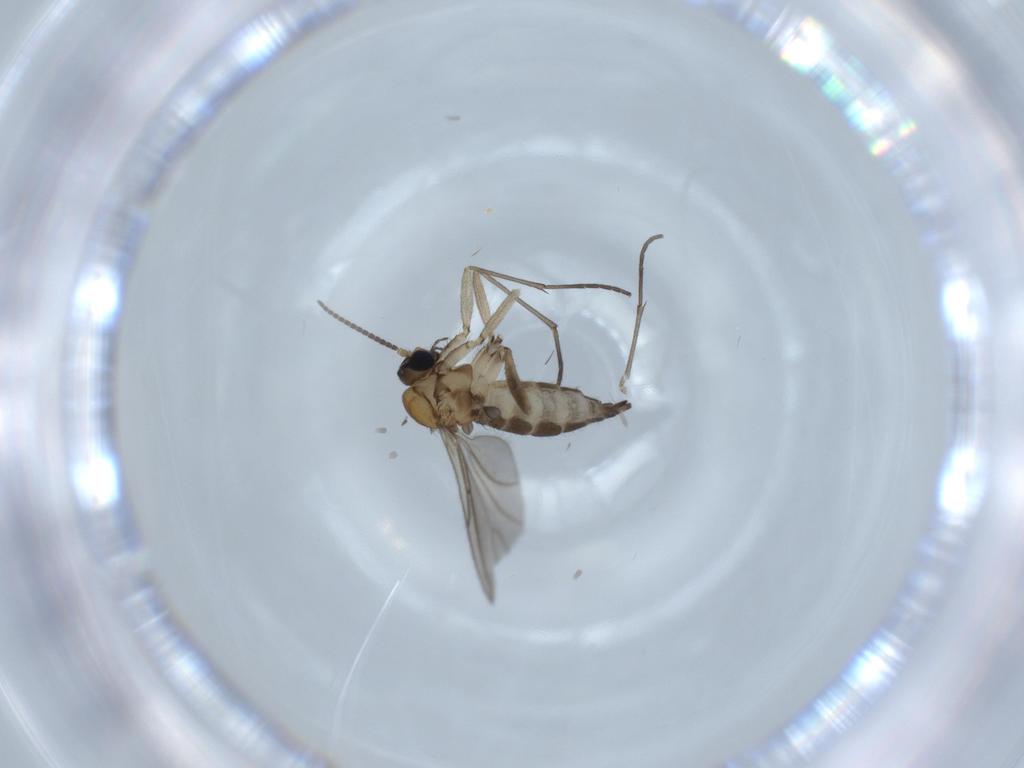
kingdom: Animalia
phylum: Arthropoda
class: Insecta
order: Diptera
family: Sciaridae
